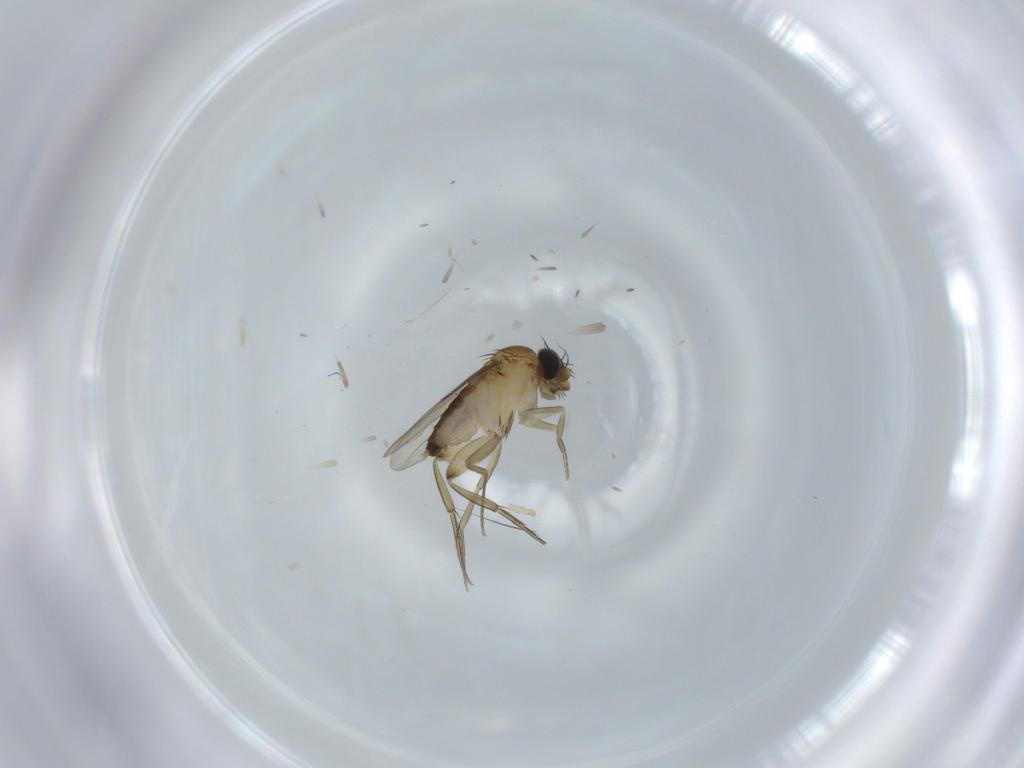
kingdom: Animalia
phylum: Arthropoda
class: Insecta
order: Diptera
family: Phoridae
